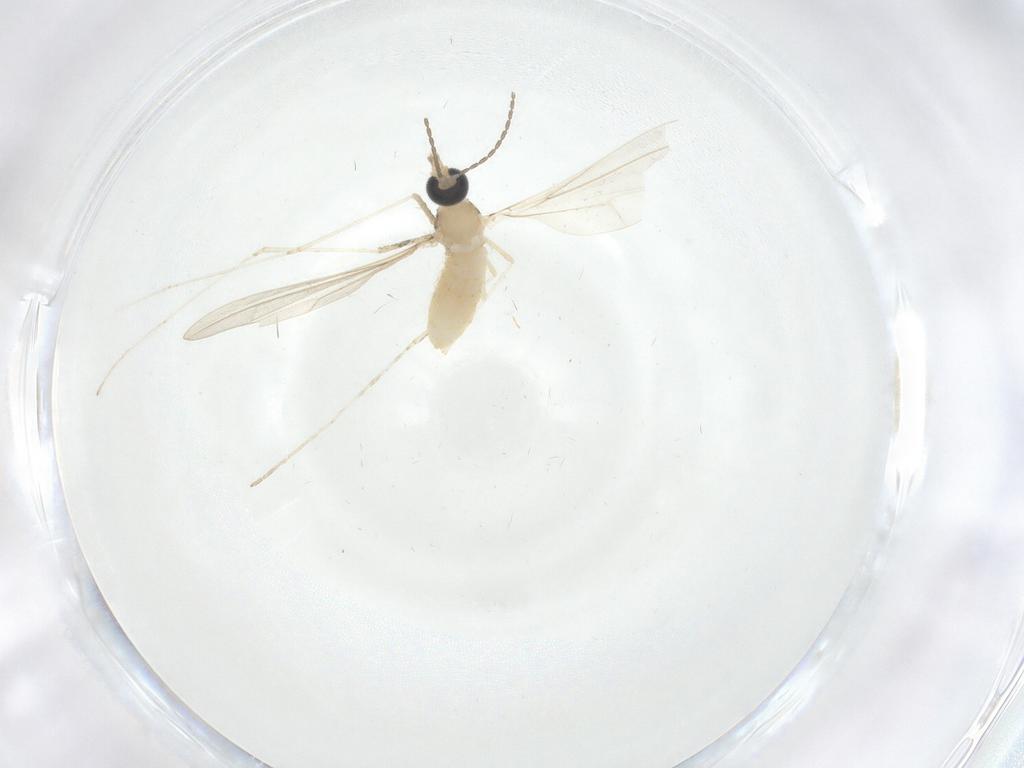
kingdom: Animalia
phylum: Arthropoda
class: Insecta
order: Diptera
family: Cecidomyiidae
